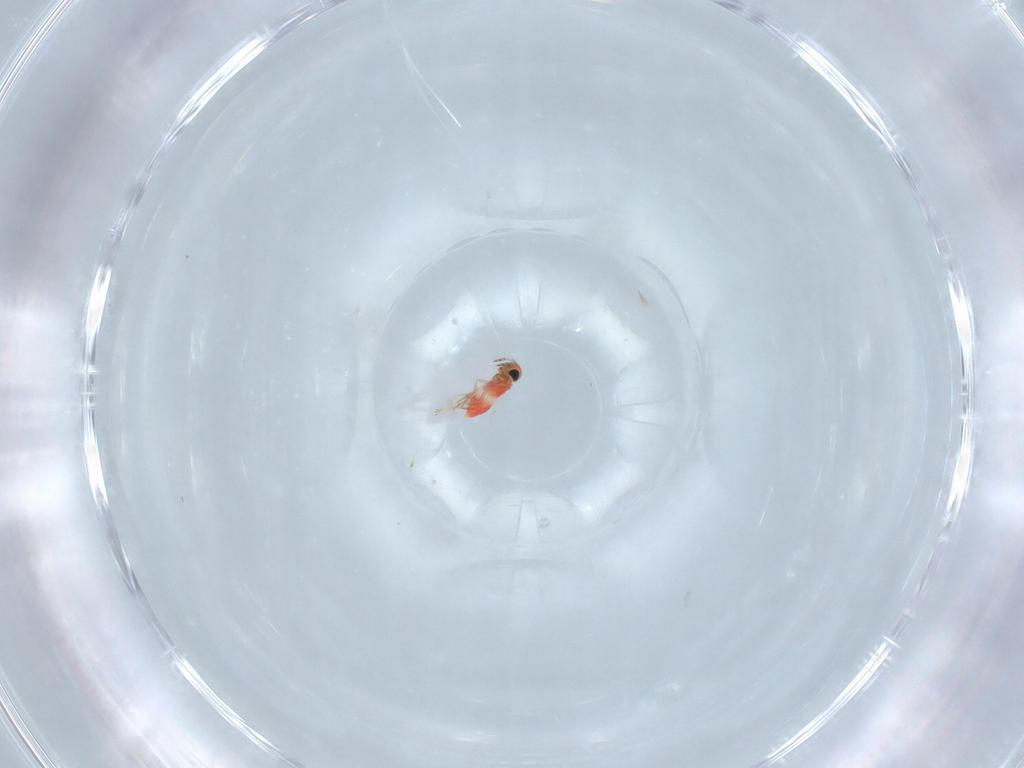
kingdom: Animalia
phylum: Arthropoda
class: Insecta
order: Hymenoptera
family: Trichogrammatidae
